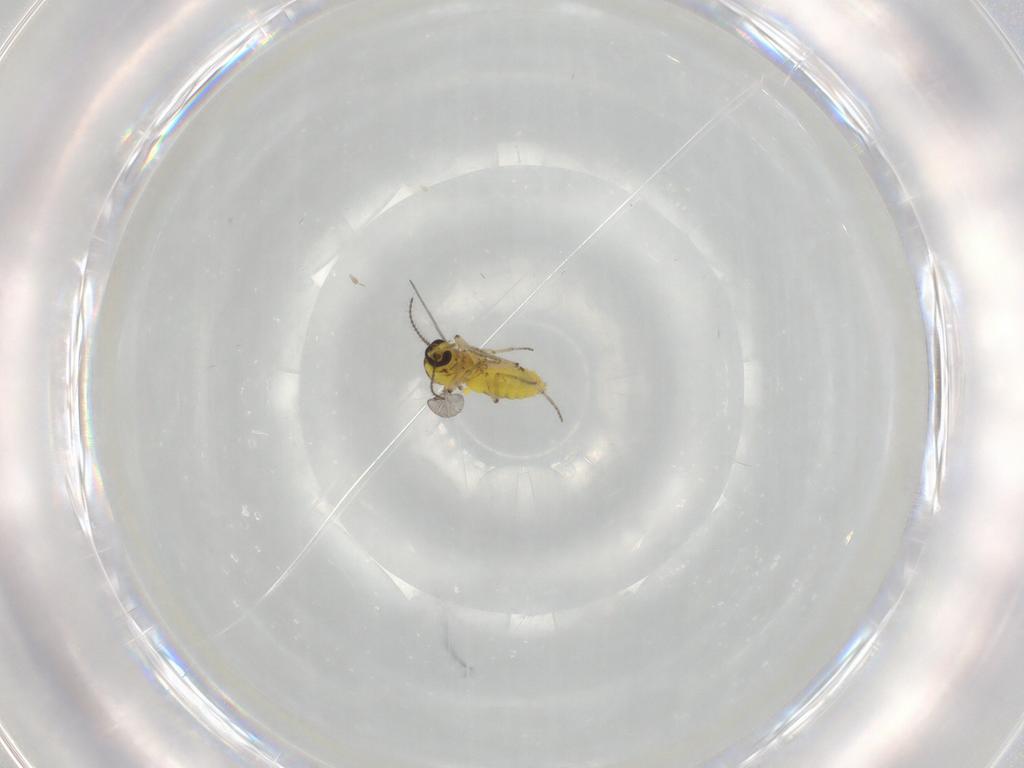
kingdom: Animalia
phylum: Arthropoda
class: Insecta
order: Diptera
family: Ceratopogonidae
